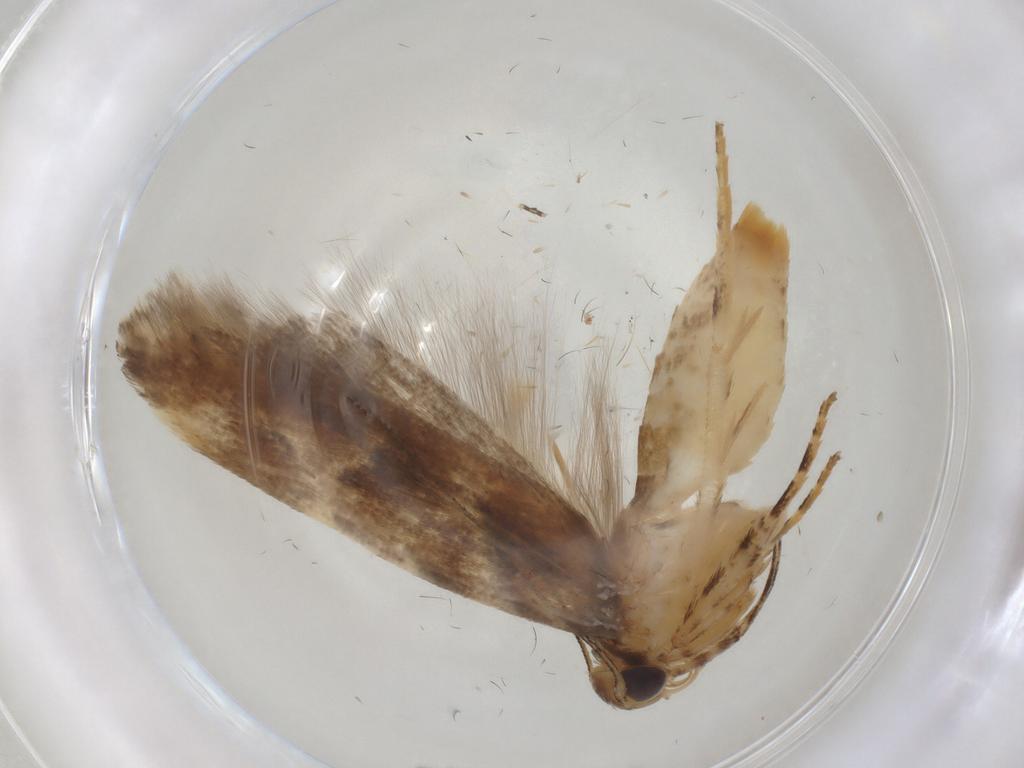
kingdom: Animalia
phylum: Arthropoda
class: Insecta
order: Lepidoptera
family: Gelechiidae
